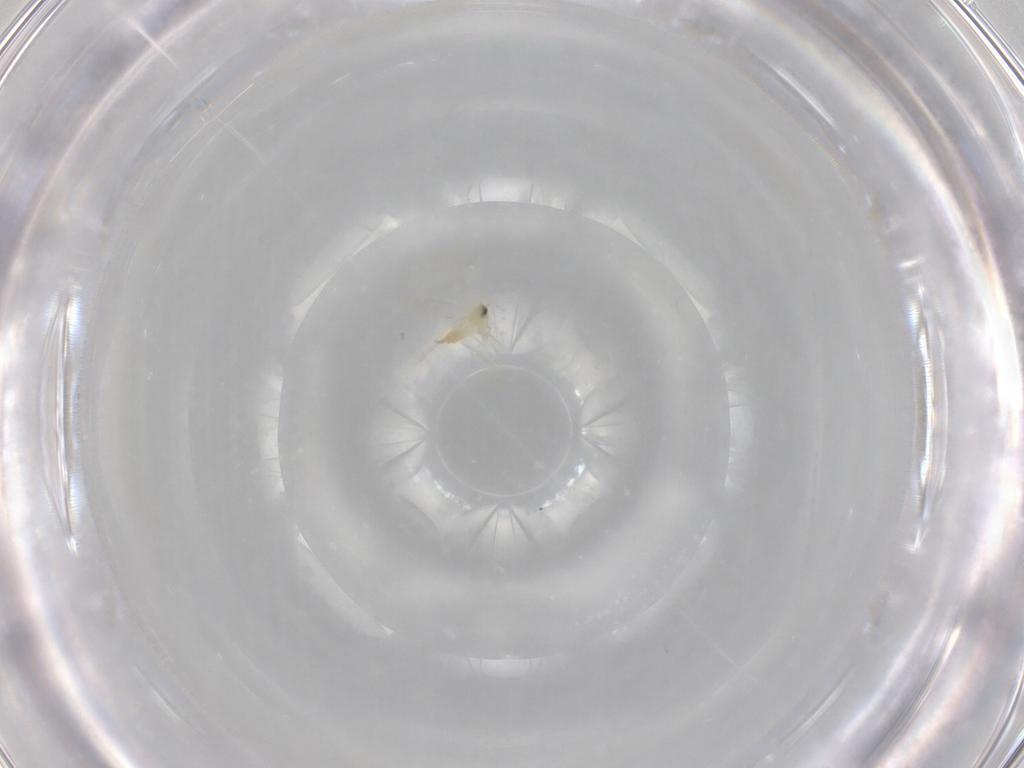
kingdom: Animalia
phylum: Arthropoda
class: Insecta
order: Hemiptera
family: Aleyrodidae
